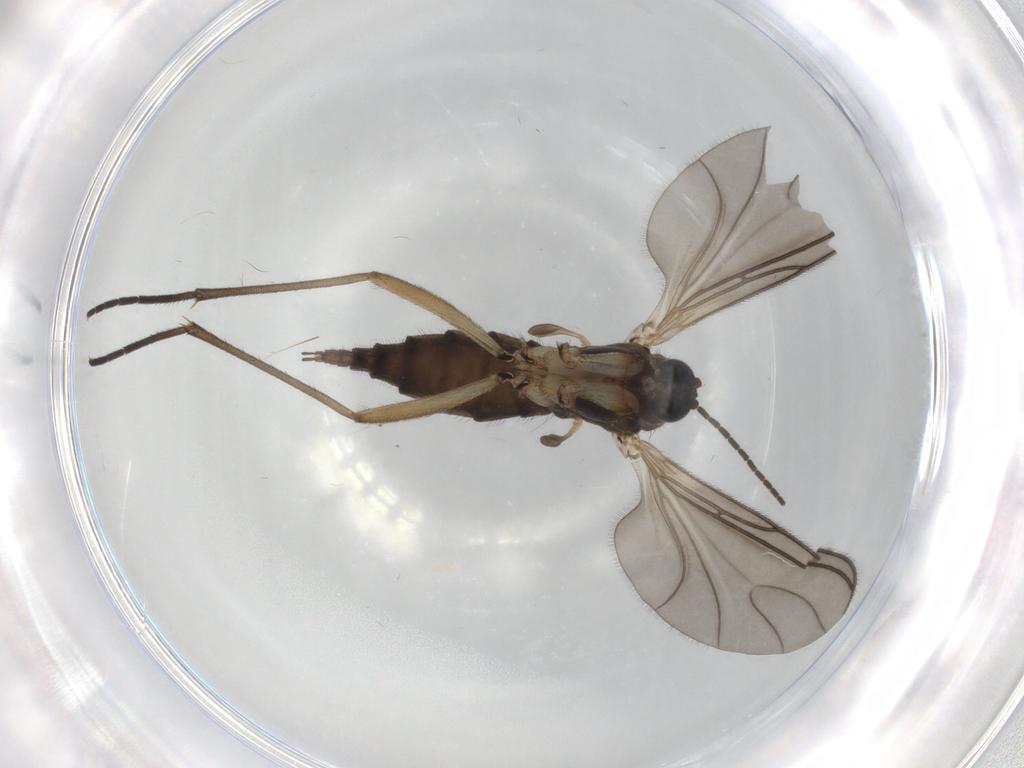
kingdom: Animalia
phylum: Arthropoda
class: Insecta
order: Diptera
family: Sciaridae
